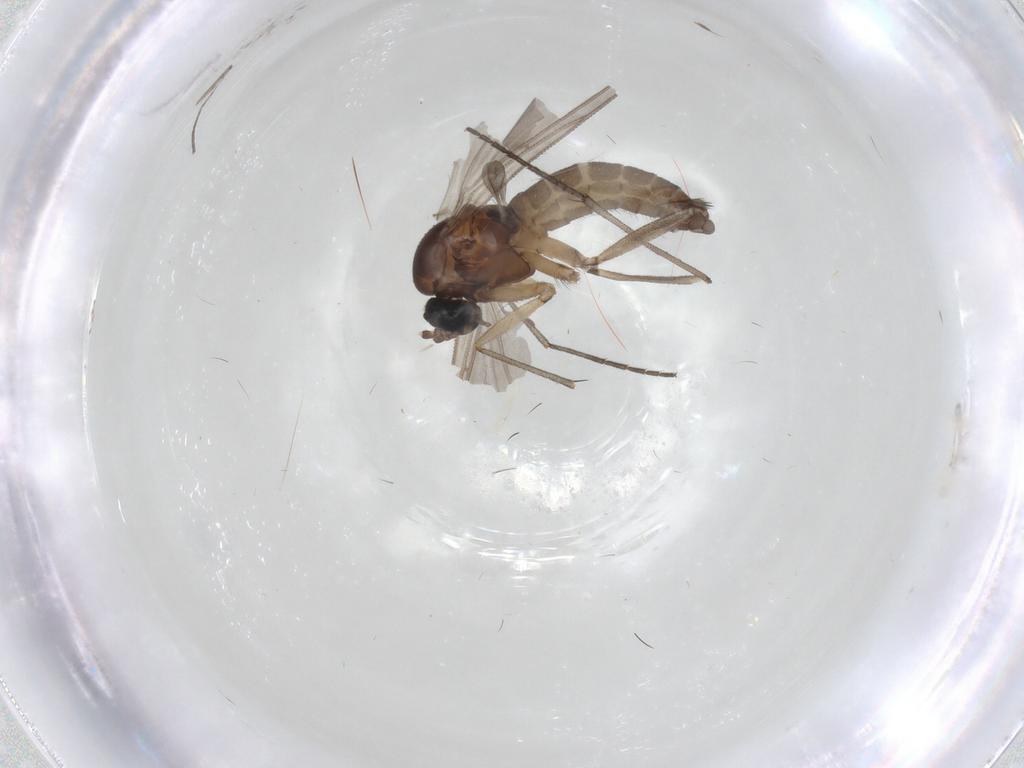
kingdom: Animalia
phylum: Arthropoda
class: Insecta
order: Diptera
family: Sciaridae
